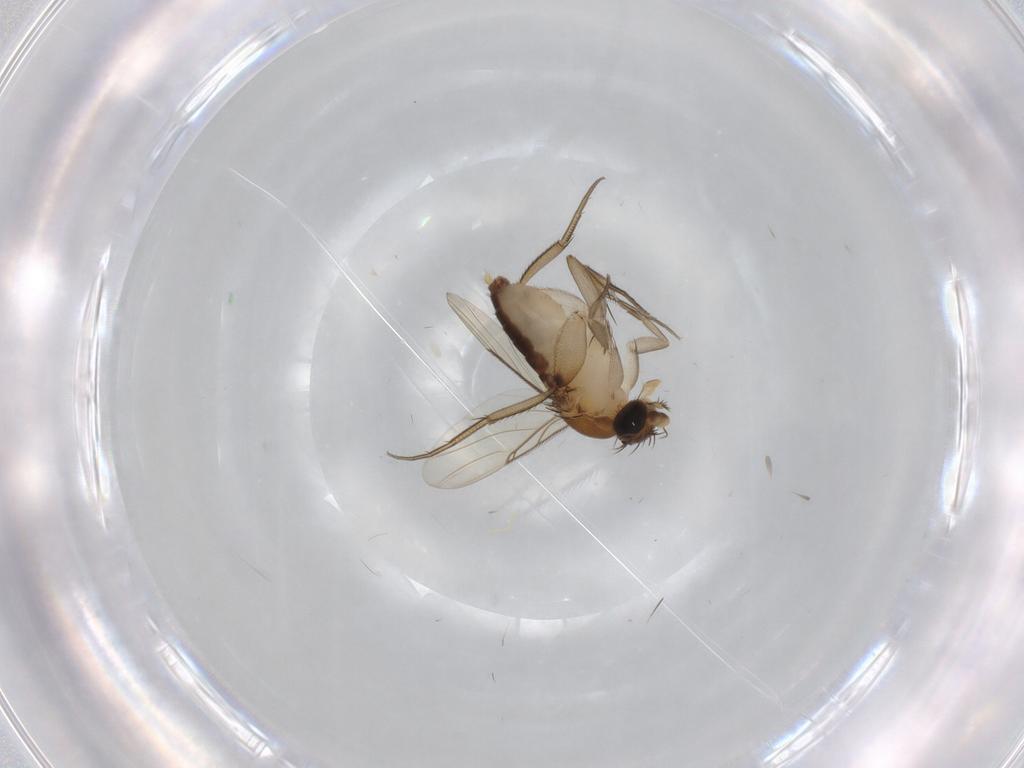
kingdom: Animalia
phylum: Arthropoda
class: Insecta
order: Diptera
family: Phoridae
